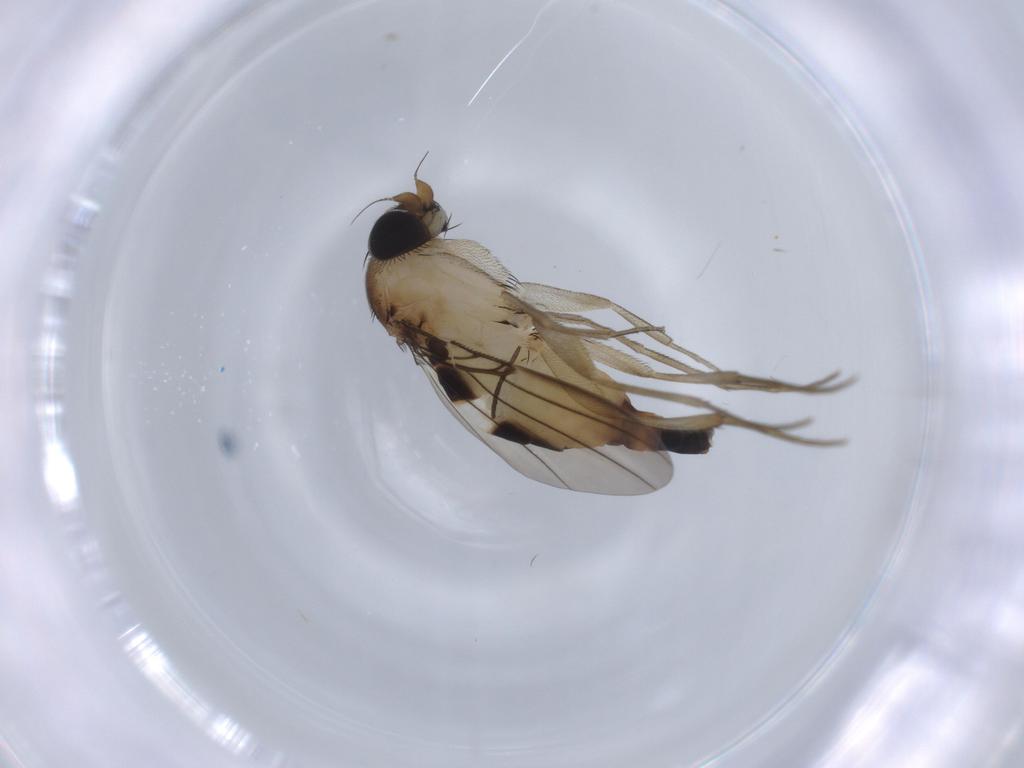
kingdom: Animalia
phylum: Arthropoda
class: Insecta
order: Diptera
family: Phoridae
